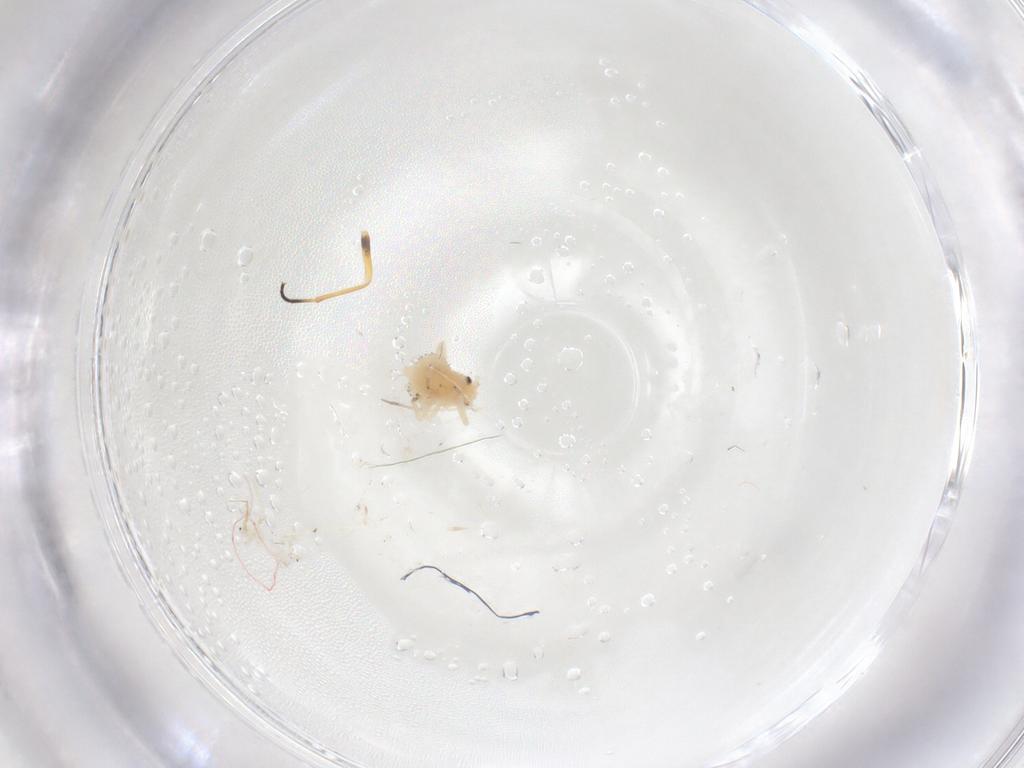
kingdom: Animalia
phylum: Arthropoda
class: Insecta
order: Hemiptera
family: Aphididae
